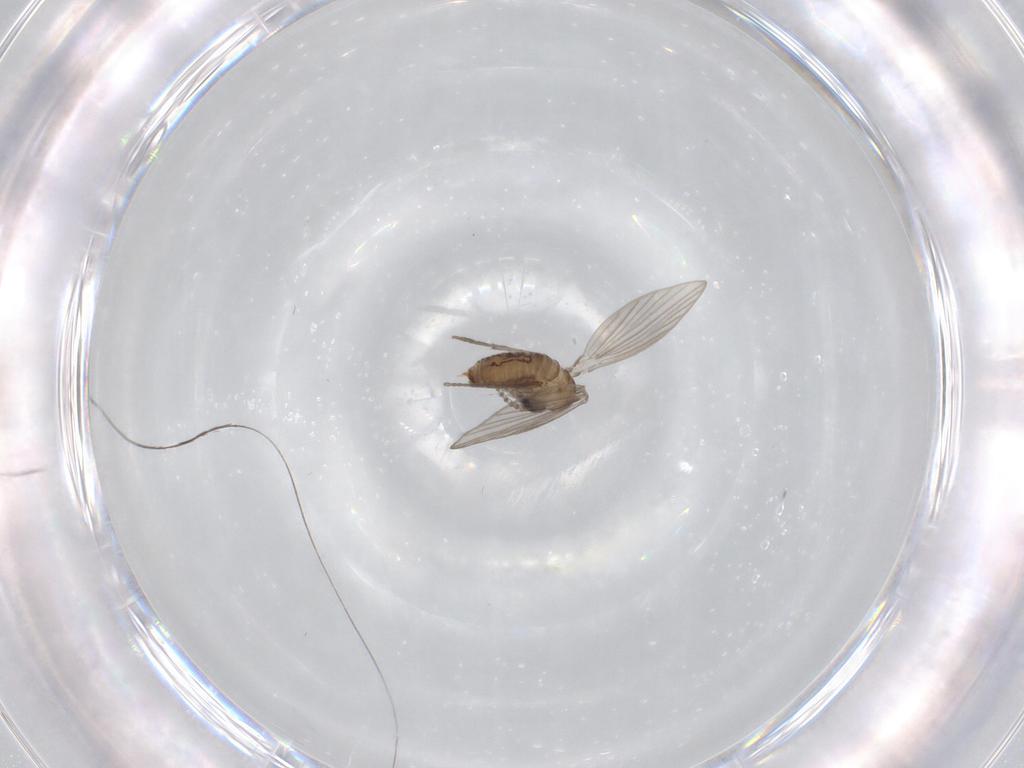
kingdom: Animalia
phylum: Arthropoda
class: Insecta
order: Diptera
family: Psychodidae
